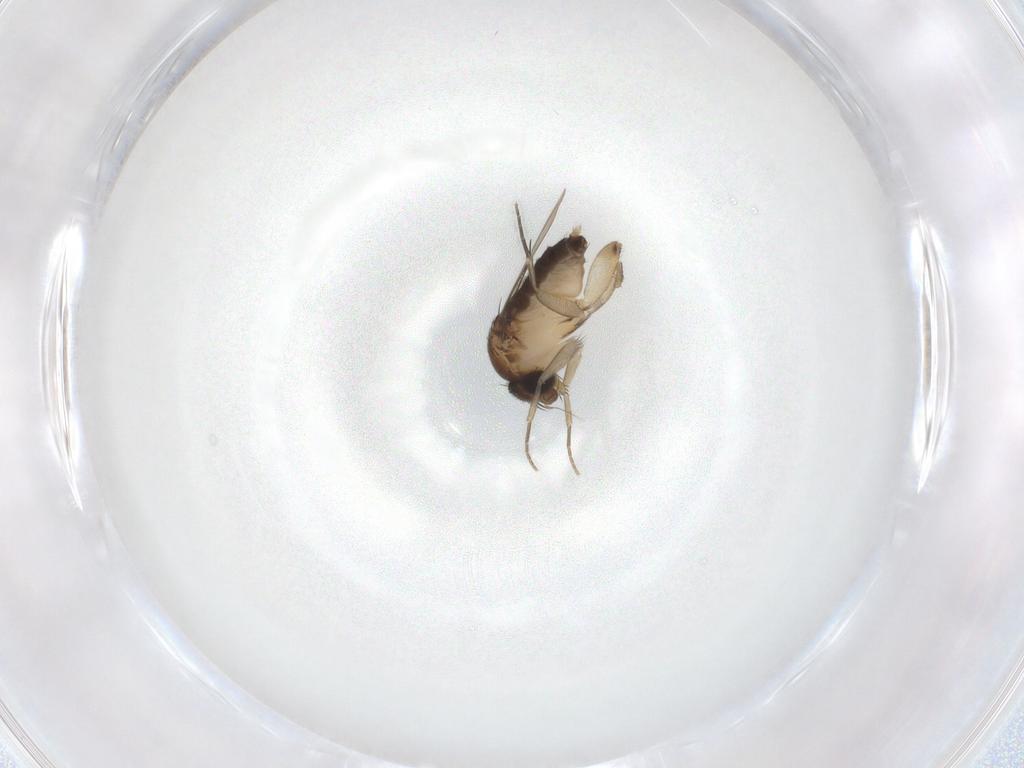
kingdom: Animalia
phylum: Arthropoda
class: Insecta
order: Diptera
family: Phoridae
